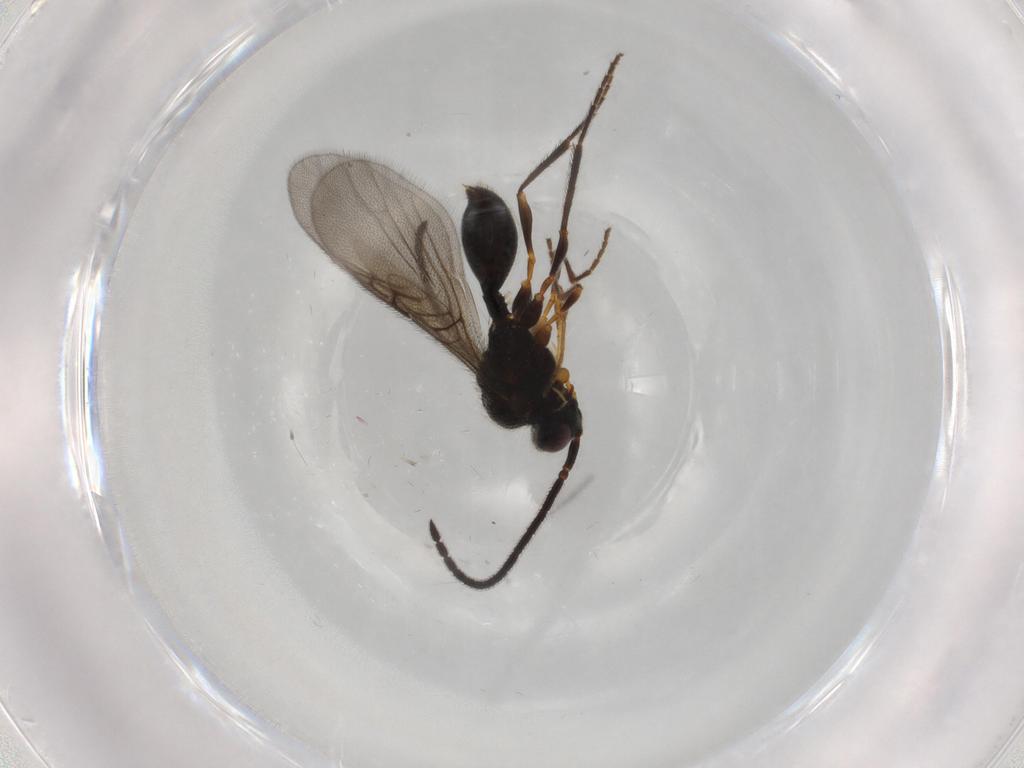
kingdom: Animalia
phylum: Arthropoda
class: Insecta
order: Hymenoptera
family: Diapriidae
